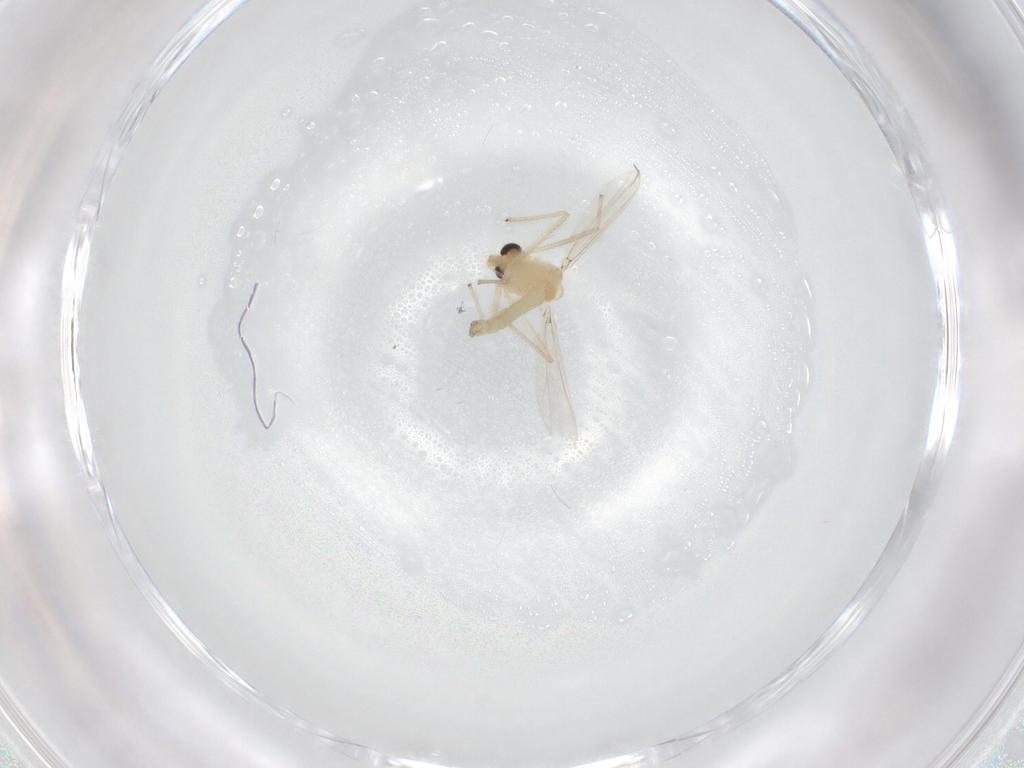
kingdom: Animalia
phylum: Arthropoda
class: Insecta
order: Diptera
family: Chironomidae
